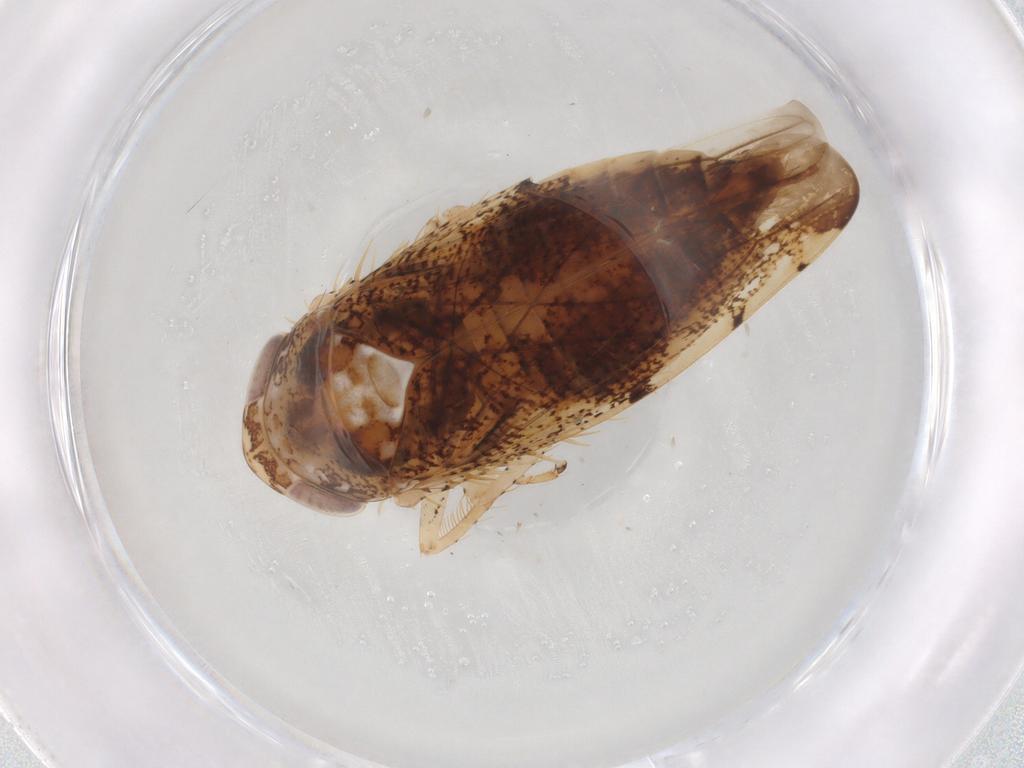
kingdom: Animalia
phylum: Arthropoda
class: Insecta
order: Hemiptera
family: Cicadellidae
